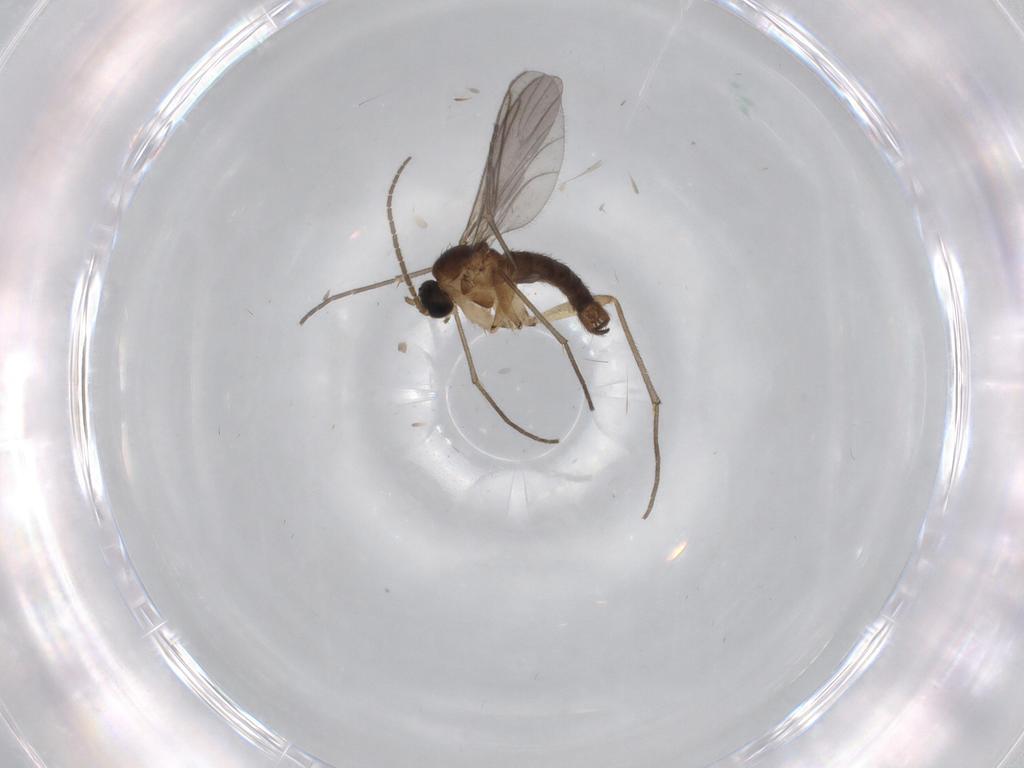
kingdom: Animalia
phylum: Arthropoda
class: Insecta
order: Diptera
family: Sciaridae
